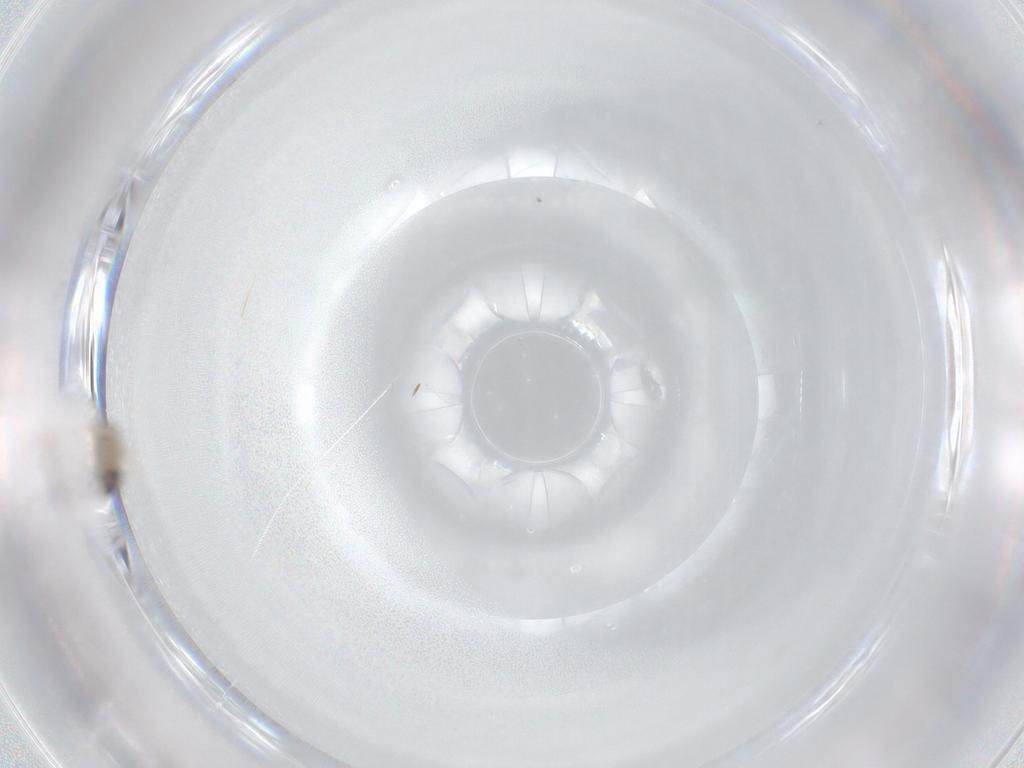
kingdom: Animalia
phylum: Arthropoda
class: Insecta
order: Diptera
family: Cecidomyiidae
